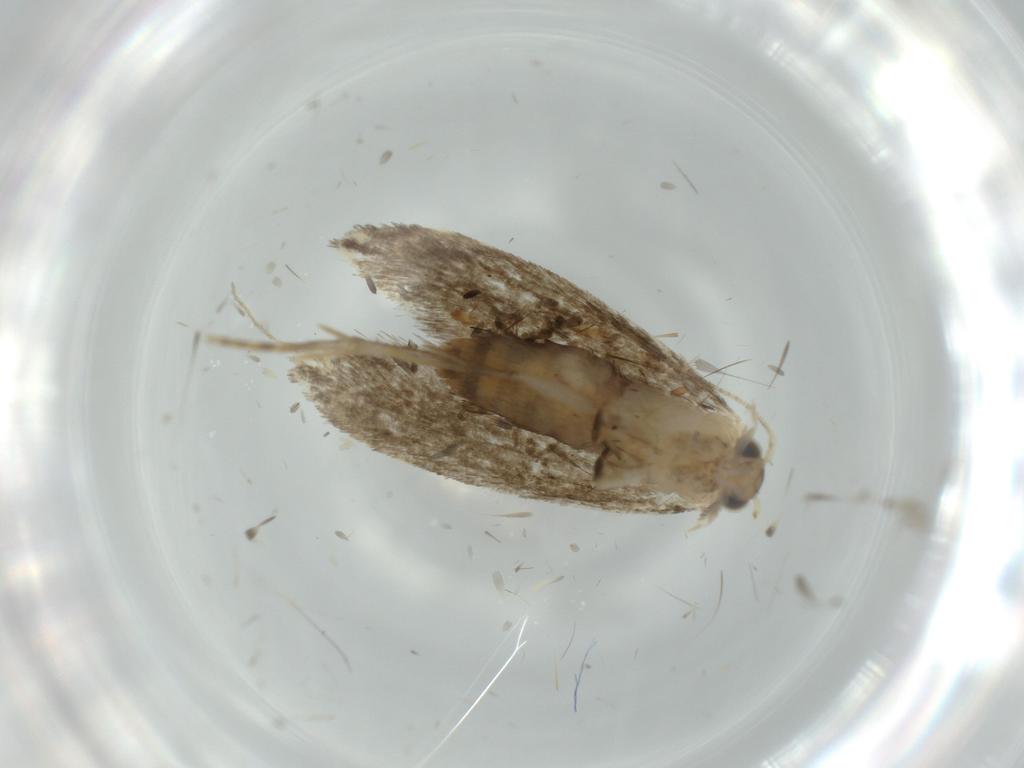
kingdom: Animalia
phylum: Arthropoda
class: Insecta
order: Lepidoptera
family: Tineidae
